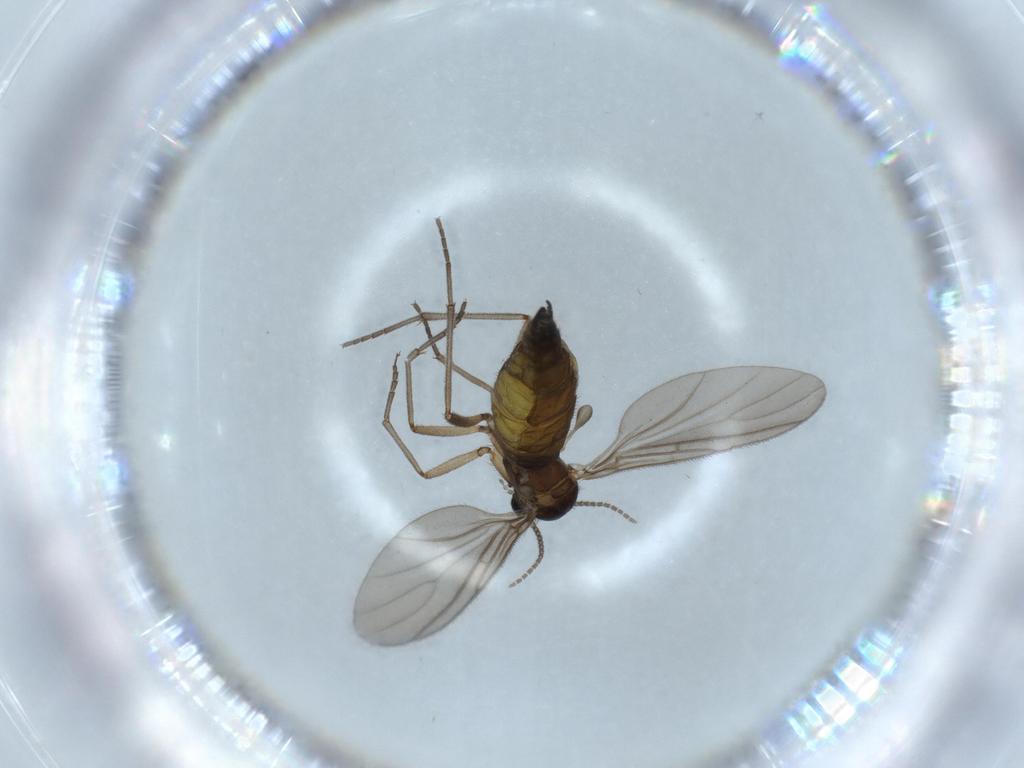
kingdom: Animalia
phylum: Arthropoda
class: Insecta
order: Diptera
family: Sciaridae
